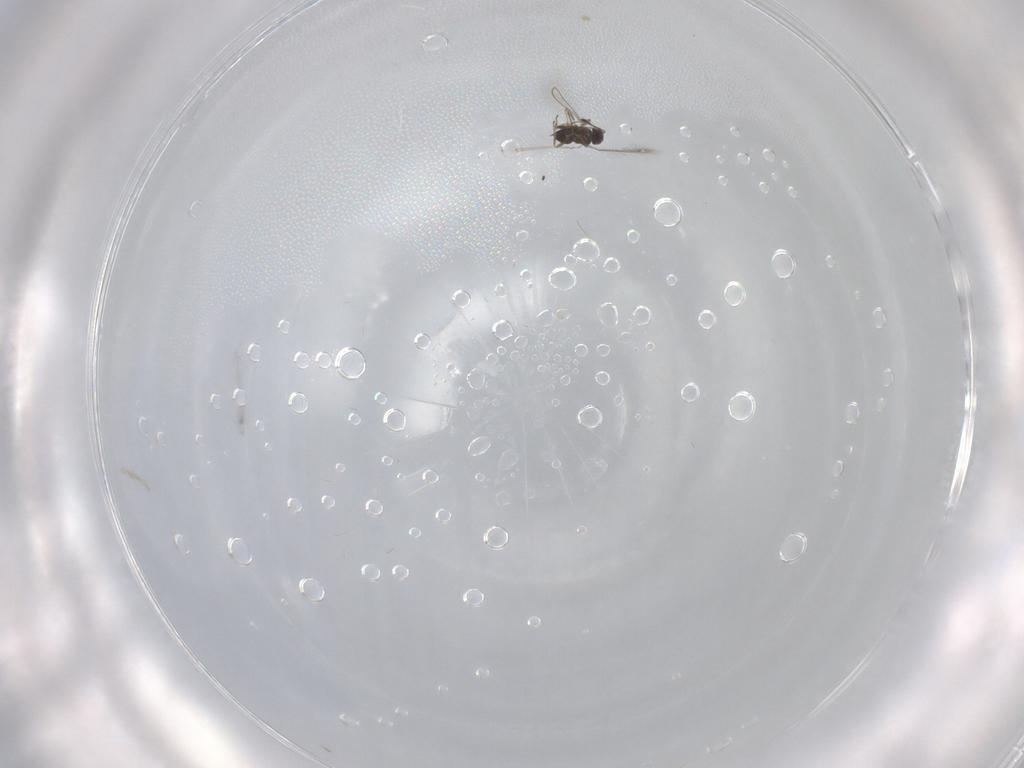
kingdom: Animalia
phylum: Arthropoda
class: Insecta
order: Hymenoptera
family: Mymaridae
